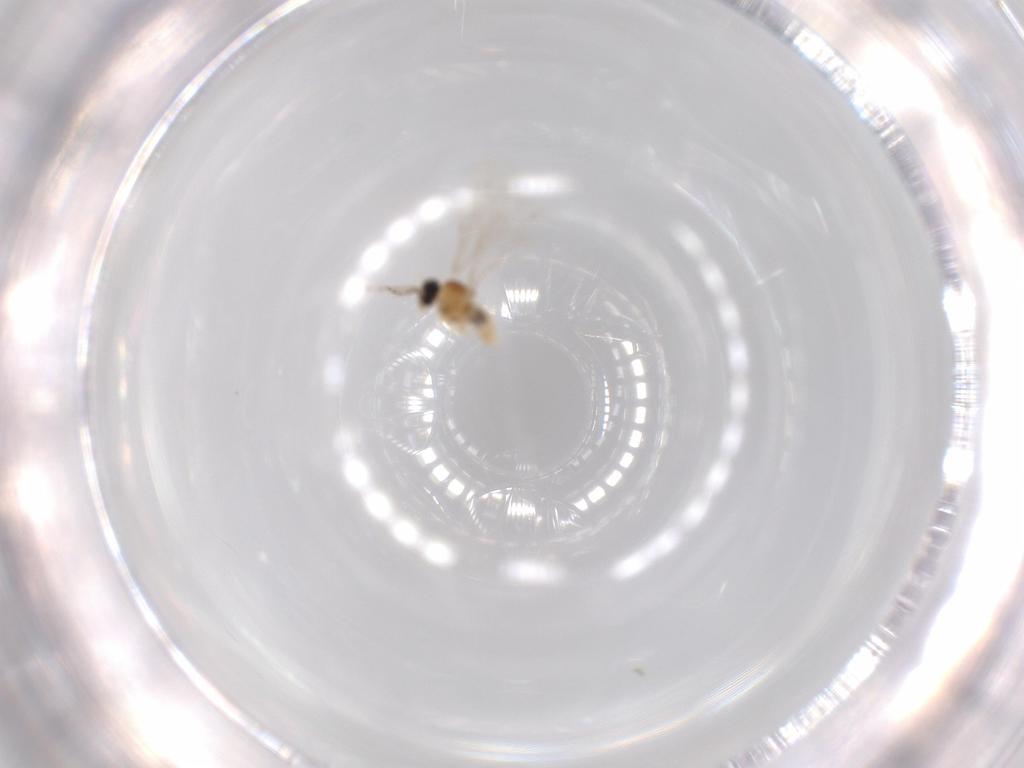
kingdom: Animalia
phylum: Arthropoda
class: Insecta
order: Diptera
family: Cecidomyiidae
